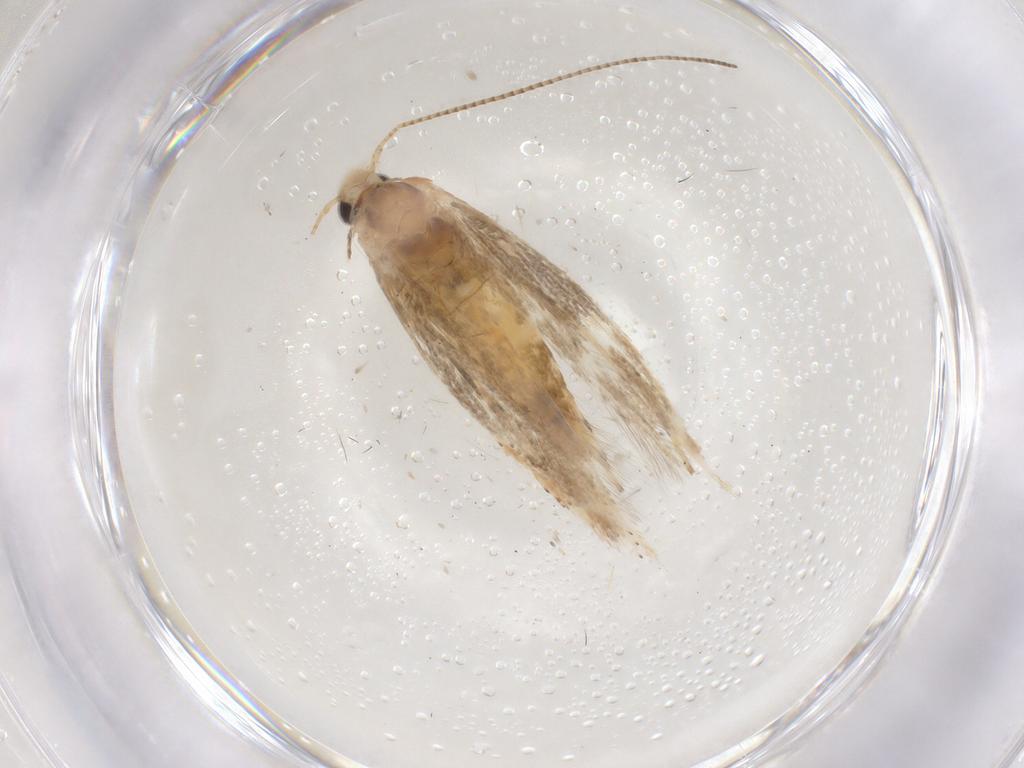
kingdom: Animalia
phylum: Arthropoda
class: Insecta
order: Lepidoptera
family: Gracillariidae
